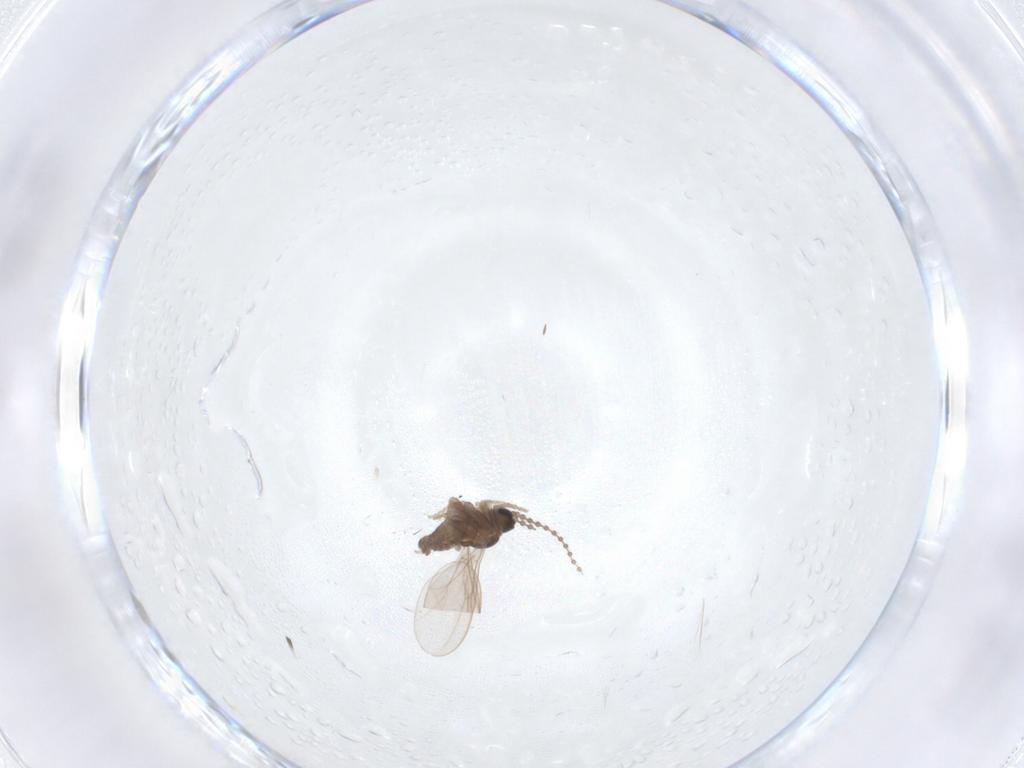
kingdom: Animalia
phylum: Arthropoda
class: Insecta
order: Diptera
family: Cecidomyiidae
